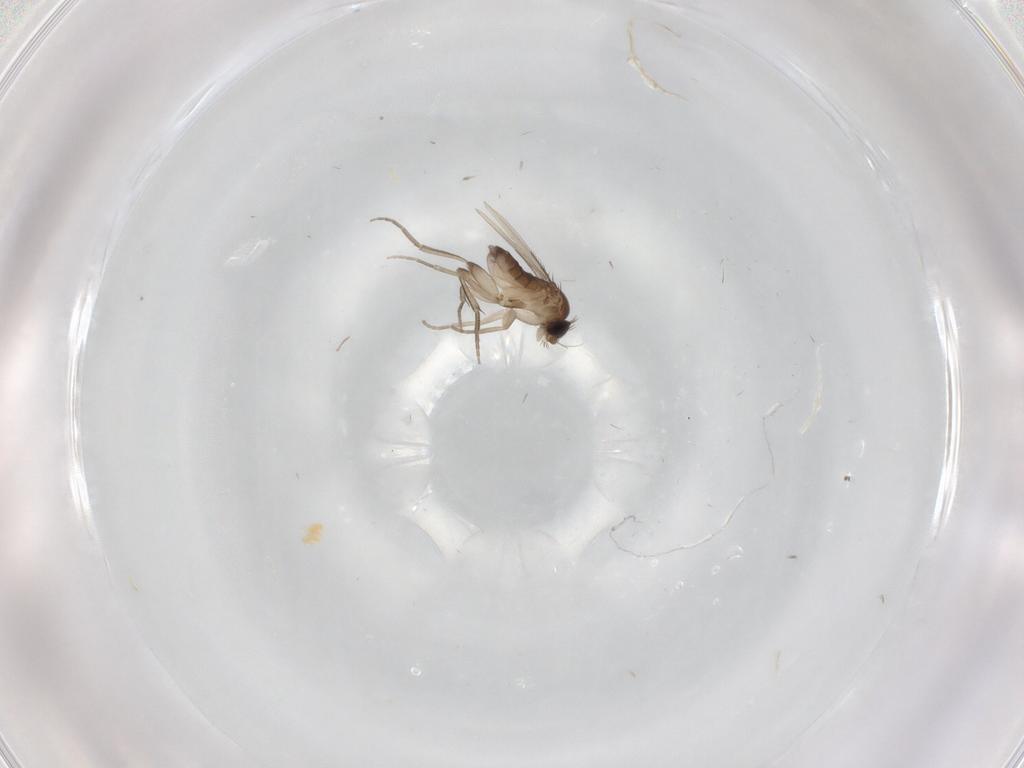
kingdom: Animalia
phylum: Arthropoda
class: Insecta
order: Diptera
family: Phoridae
